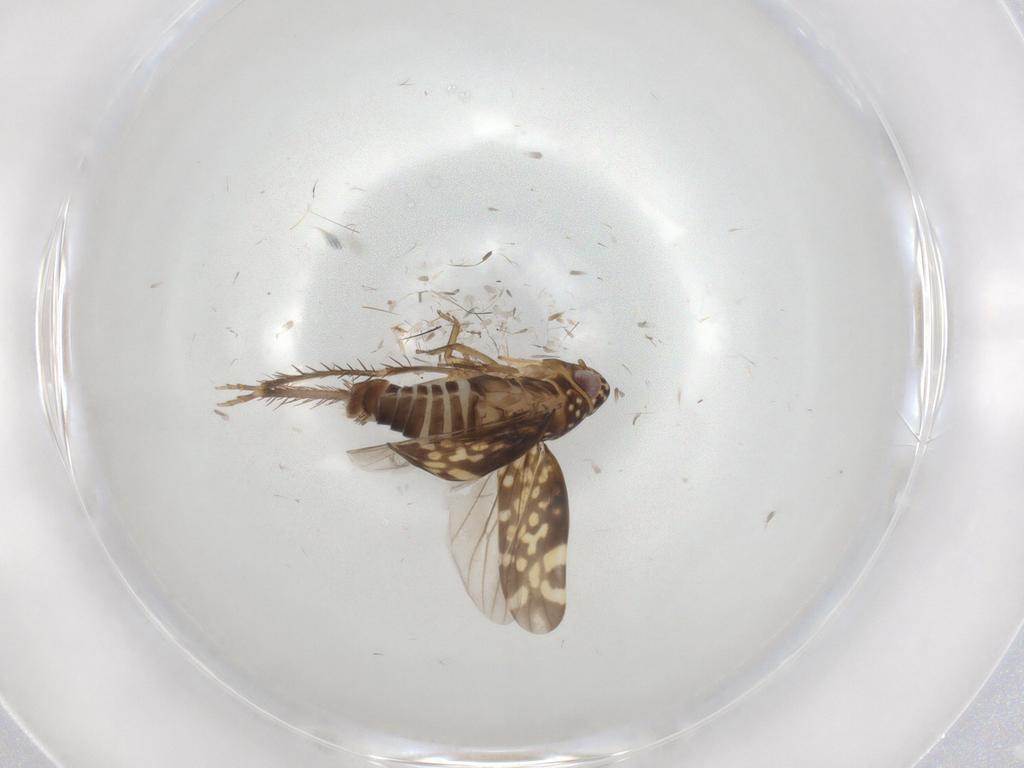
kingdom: Animalia
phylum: Arthropoda
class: Insecta
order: Hemiptera
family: Cicadellidae
